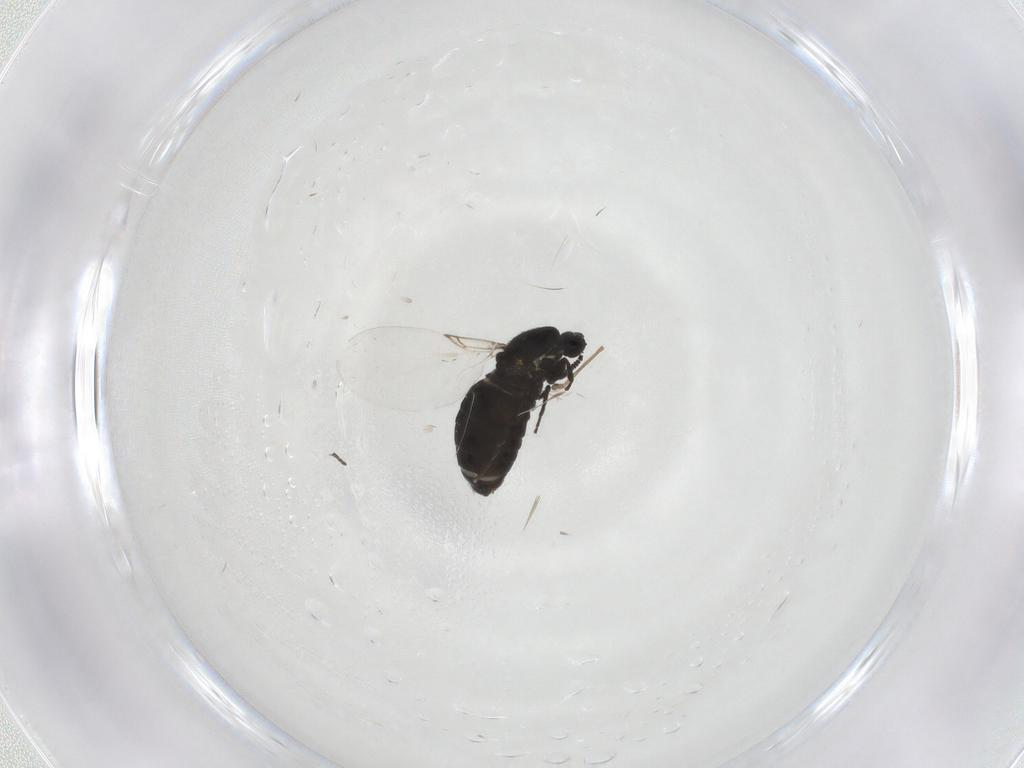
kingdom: Animalia
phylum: Arthropoda
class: Insecta
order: Diptera
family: Scatopsidae
